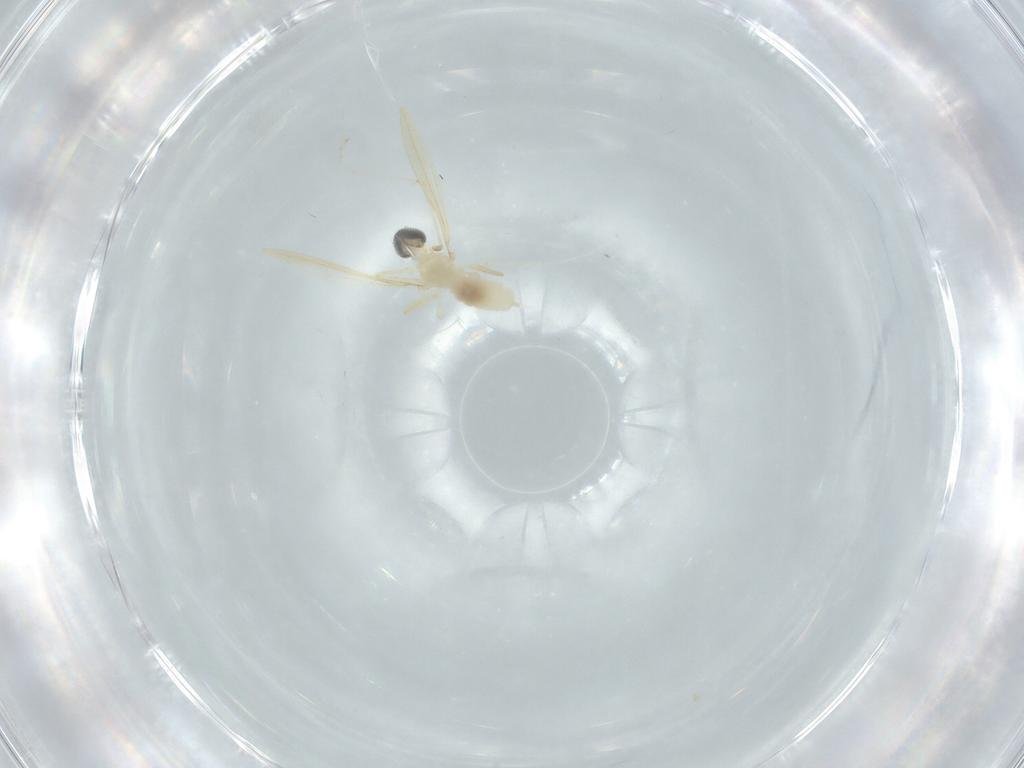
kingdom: Animalia
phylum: Arthropoda
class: Insecta
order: Diptera
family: Cecidomyiidae
